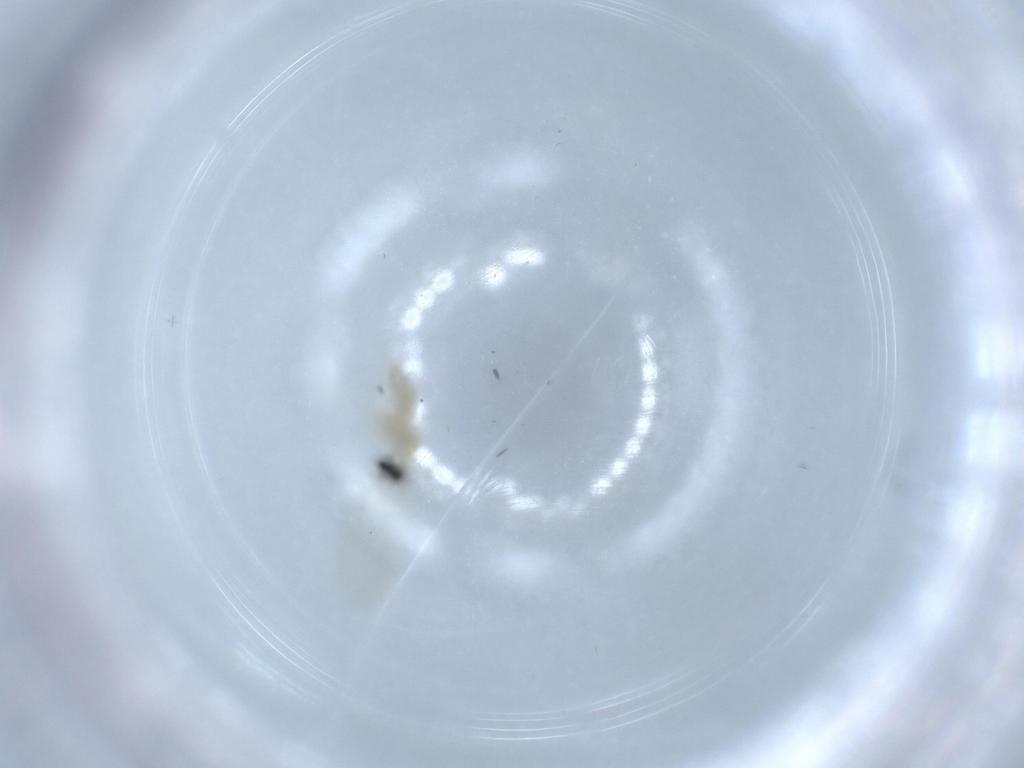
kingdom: Animalia
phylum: Arthropoda
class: Insecta
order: Diptera
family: Cecidomyiidae
